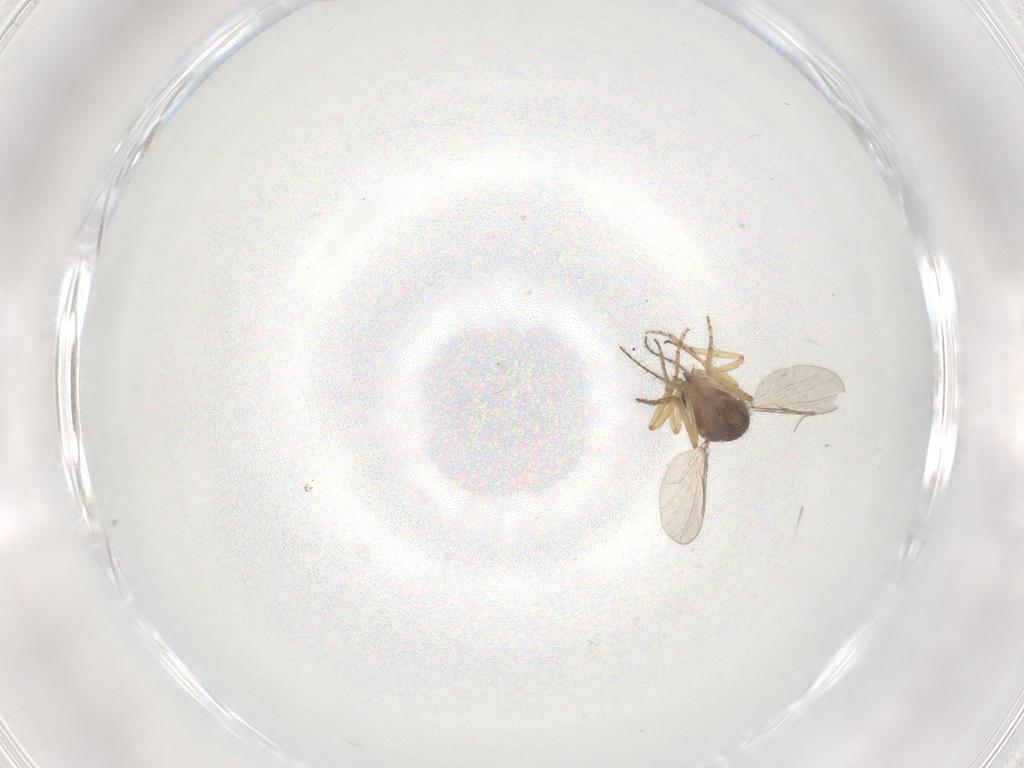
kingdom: Animalia
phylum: Arthropoda
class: Insecta
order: Diptera
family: Ceratopogonidae
